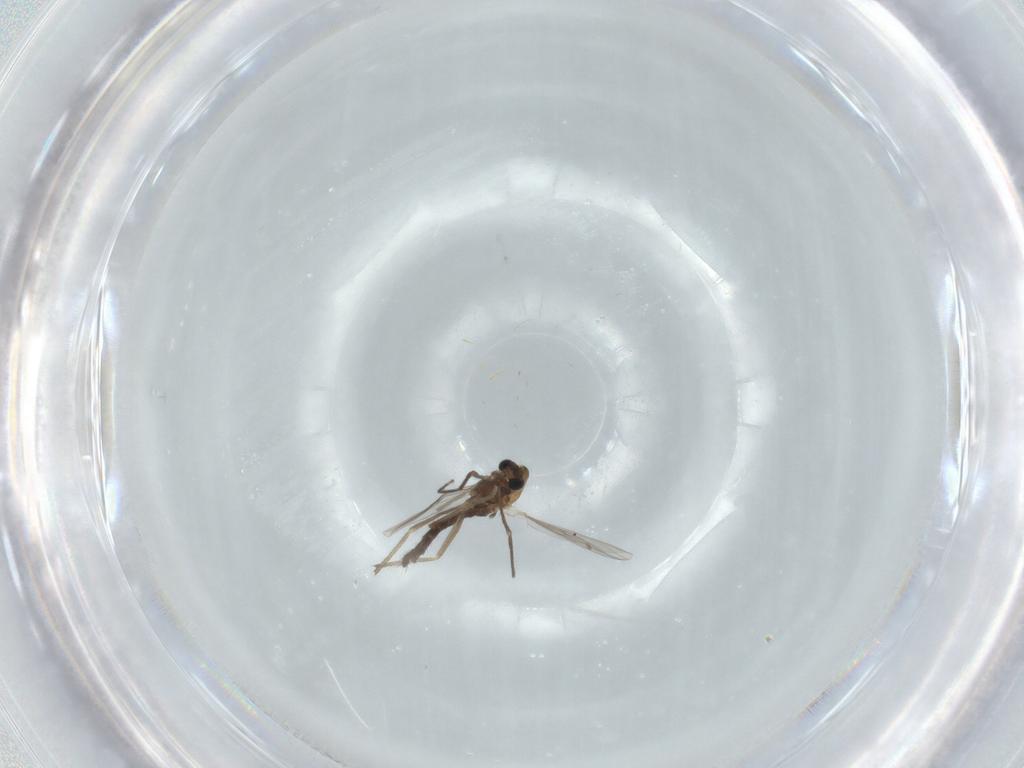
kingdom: Animalia
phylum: Arthropoda
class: Insecta
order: Diptera
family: Chironomidae
